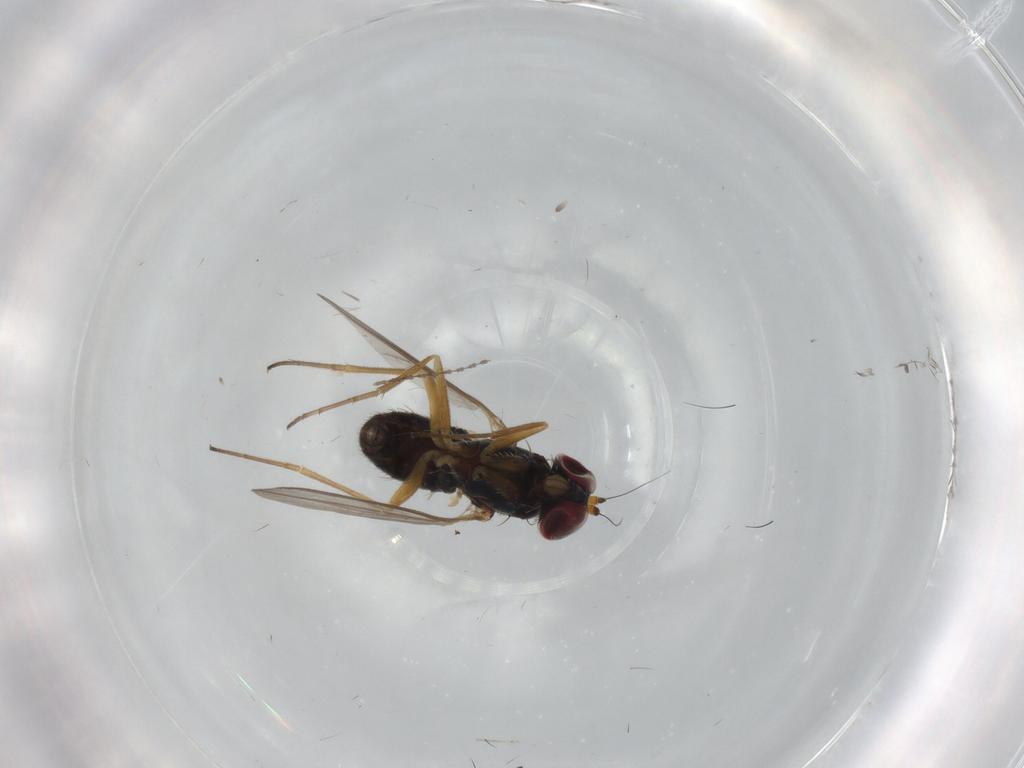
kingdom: Animalia
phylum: Arthropoda
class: Insecta
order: Diptera
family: Dolichopodidae
